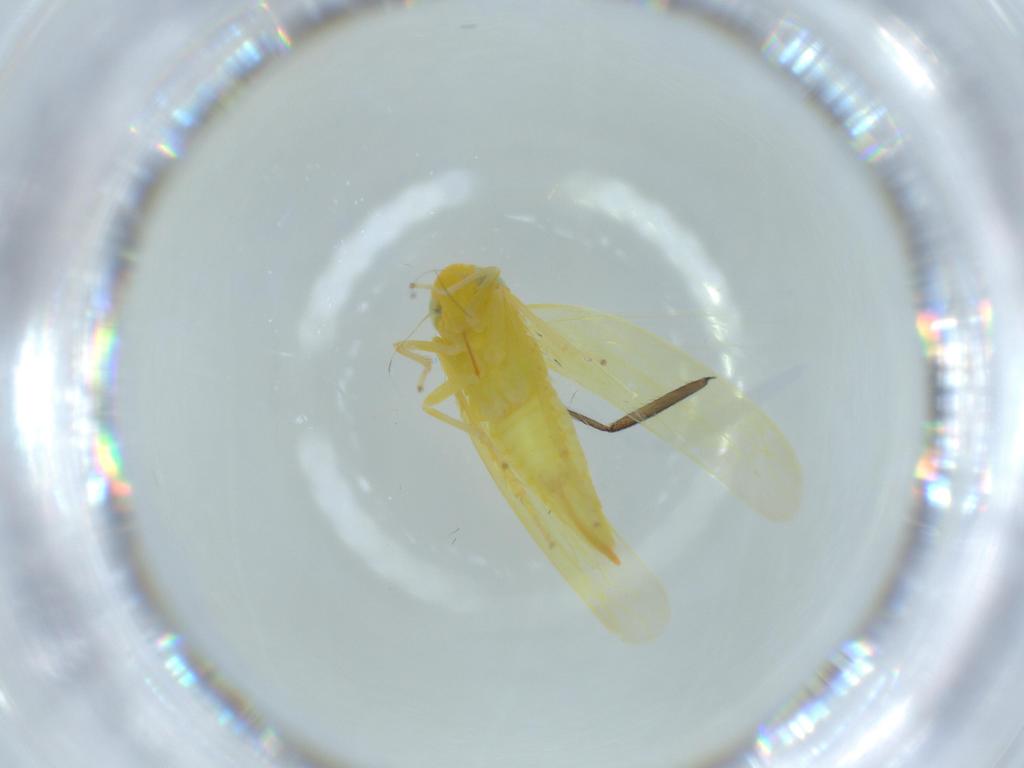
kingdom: Animalia
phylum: Arthropoda
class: Insecta
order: Hemiptera
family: Cicadellidae
